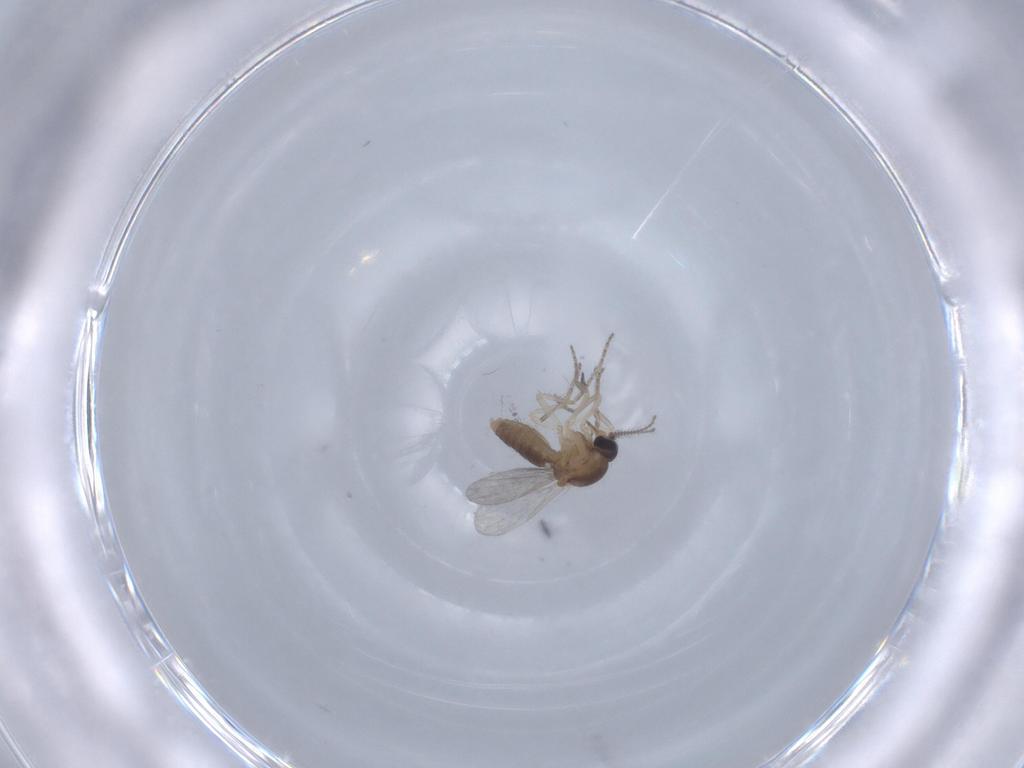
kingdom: Animalia
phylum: Arthropoda
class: Insecta
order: Diptera
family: Ceratopogonidae
